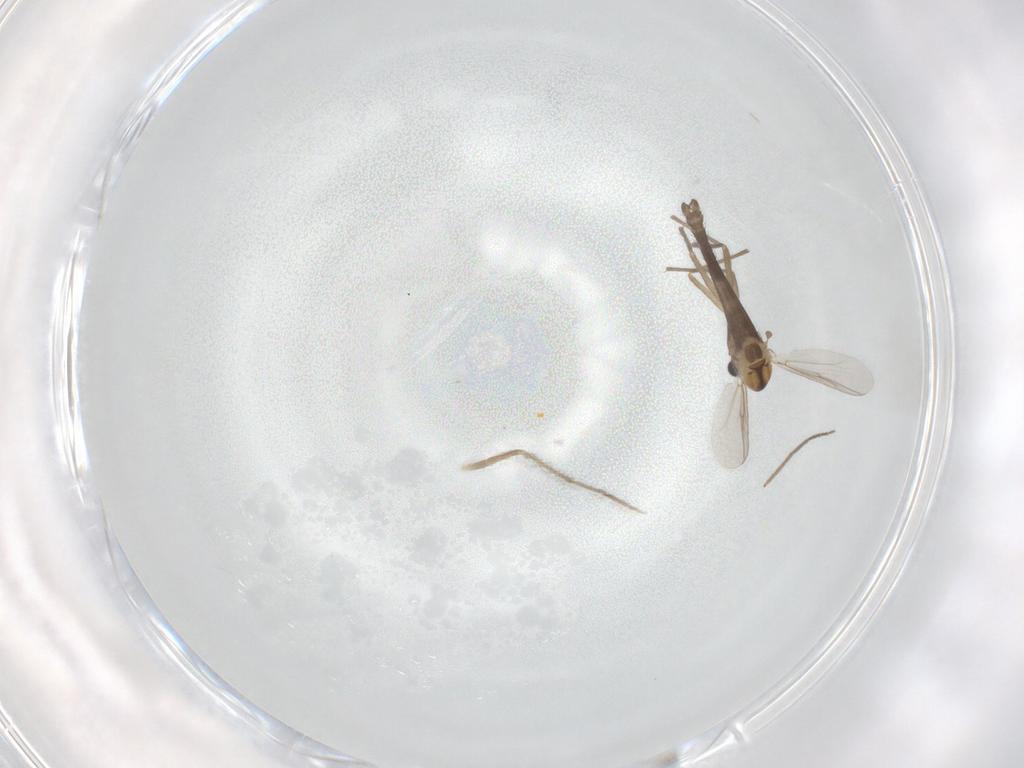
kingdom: Animalia
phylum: Arthropoda
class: Insecta
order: Diptera
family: Chironomidae
